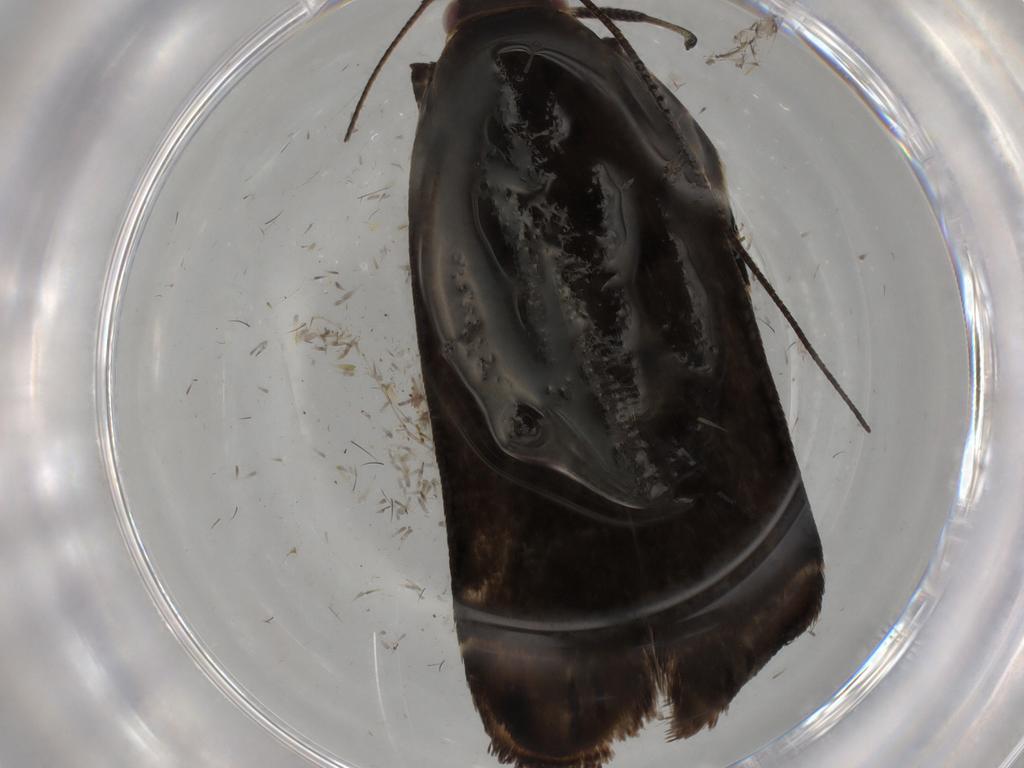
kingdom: Animalia
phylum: Arthropoda
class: Insecta
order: Lepidoptera
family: Gelechiidae
